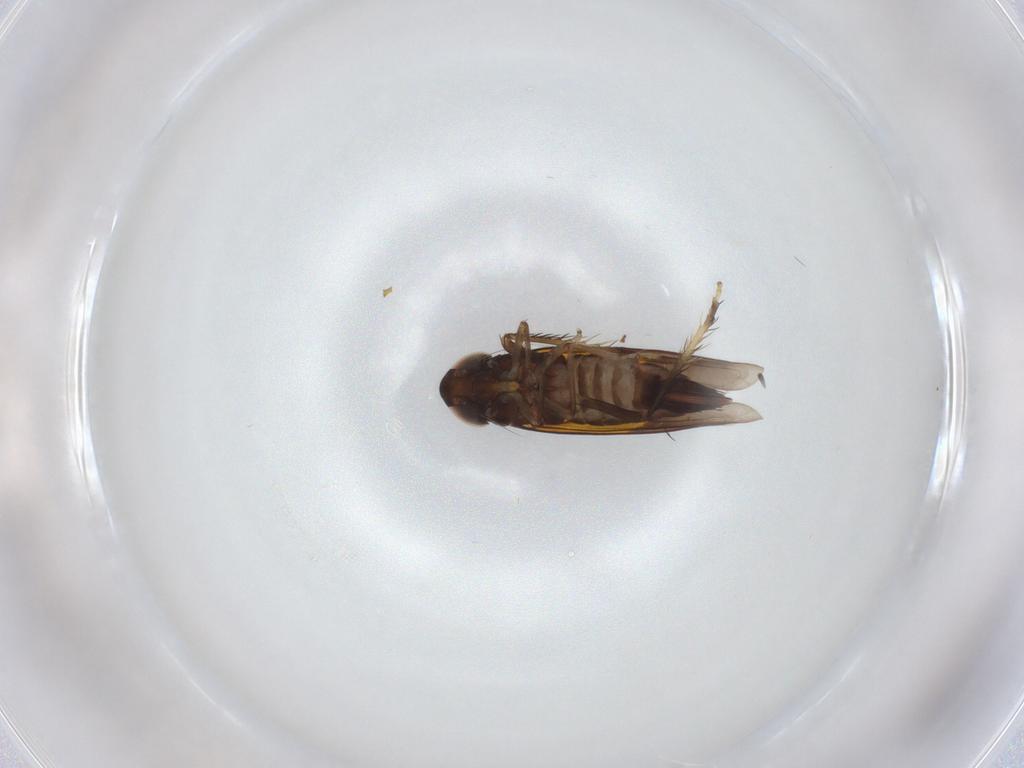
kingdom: Animalia
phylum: Arthropoda
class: Insecta
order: Hemiptera
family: Cicadellidae
